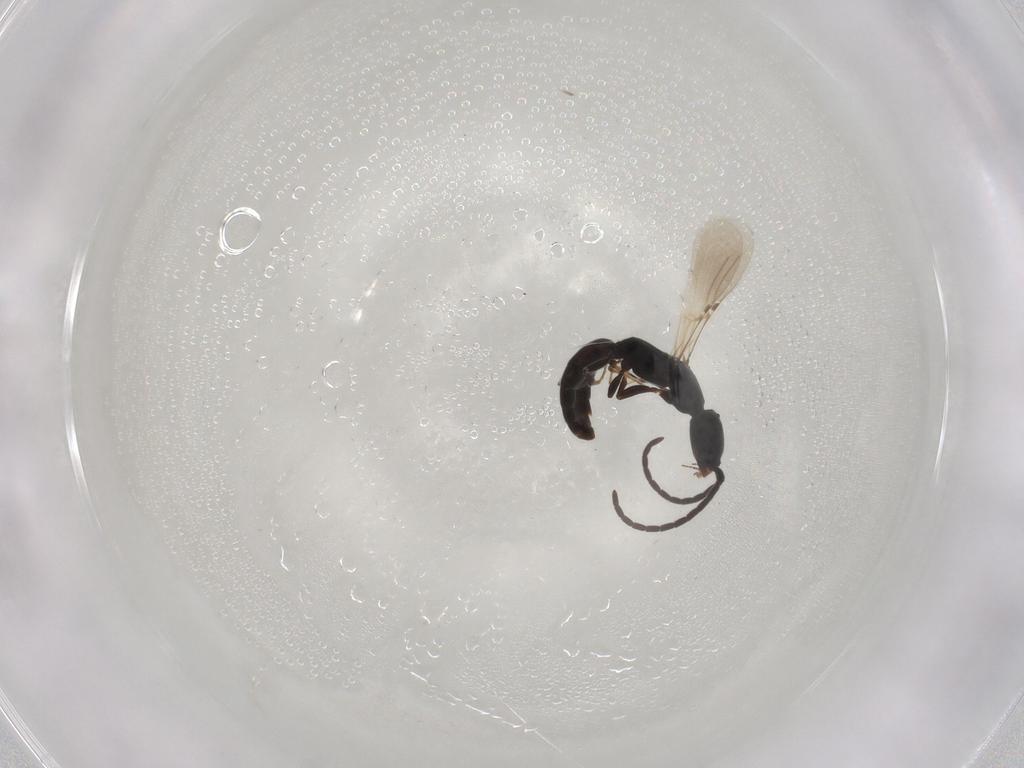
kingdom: Animalia
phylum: Arthropoda
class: Insecta
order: Hymenoptera
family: Bethylidae
